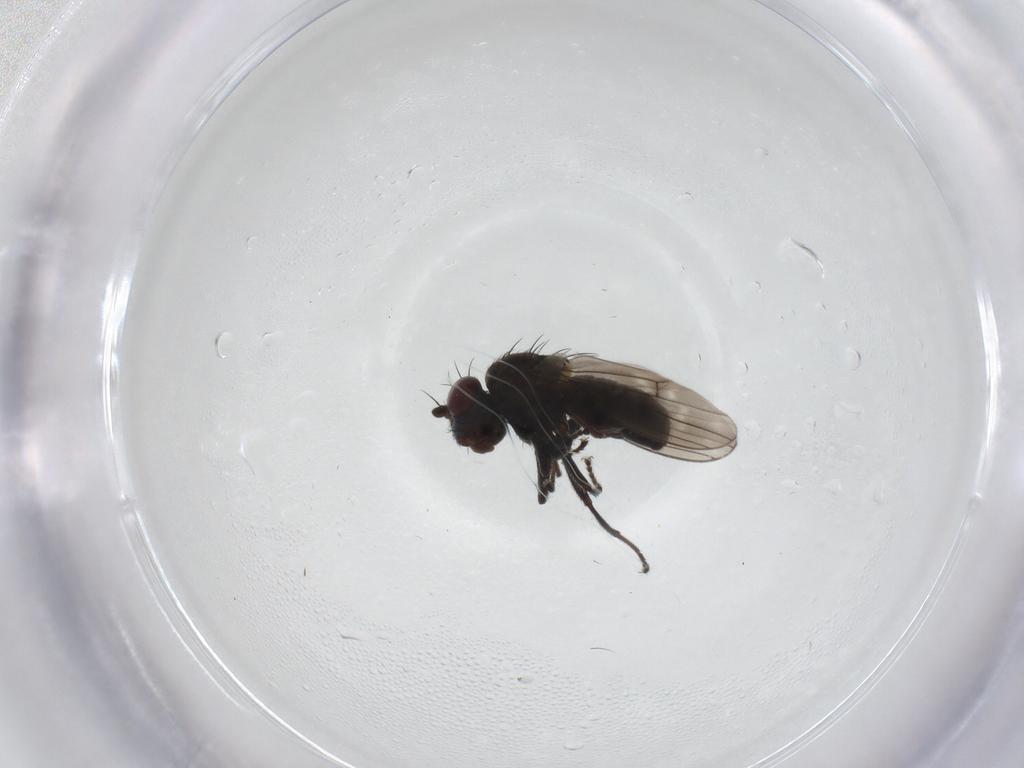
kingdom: Animalia
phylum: Arthropoda
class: Insecta
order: Diptera
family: Ephydridae
